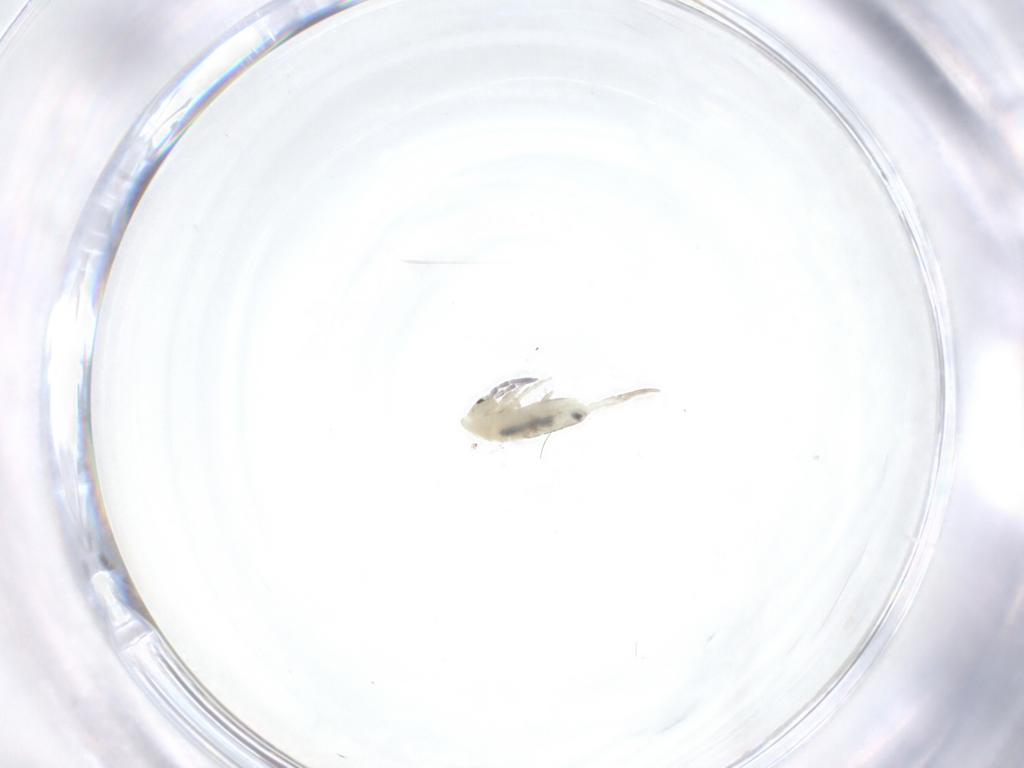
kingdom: Animalia
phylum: Arthropoda
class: Collembola
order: Entomobryomorpha
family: Entomobryidae
